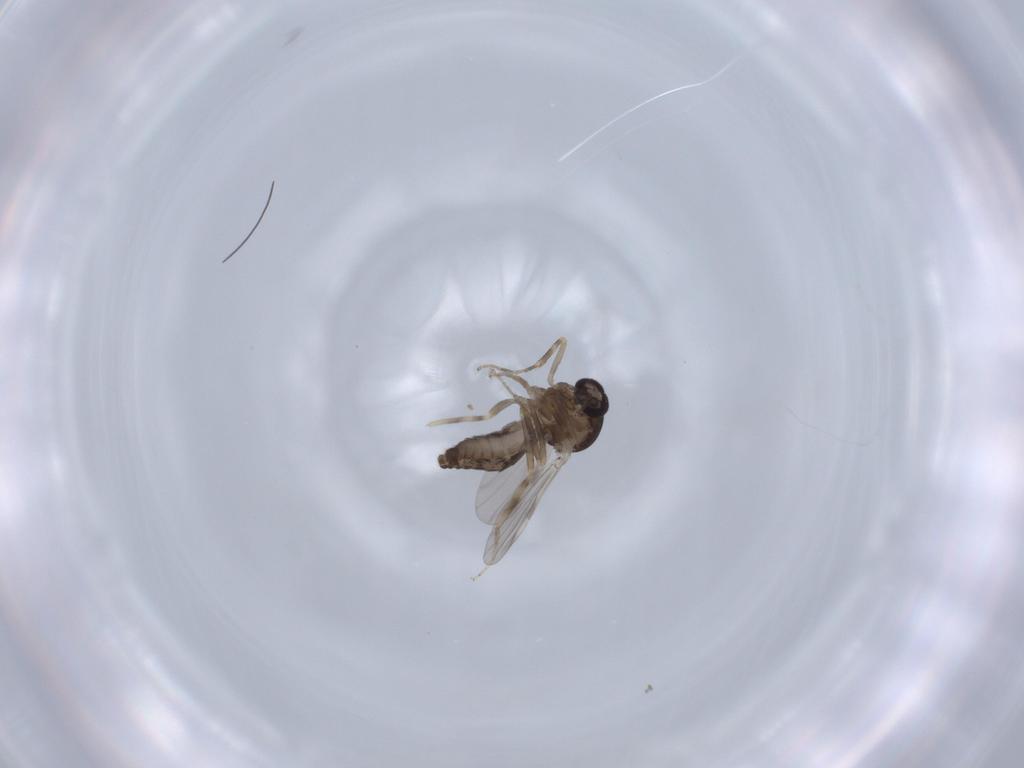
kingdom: Animalia
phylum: Arthropoda
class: Insecta
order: Diptera
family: Ceratopogonidae
